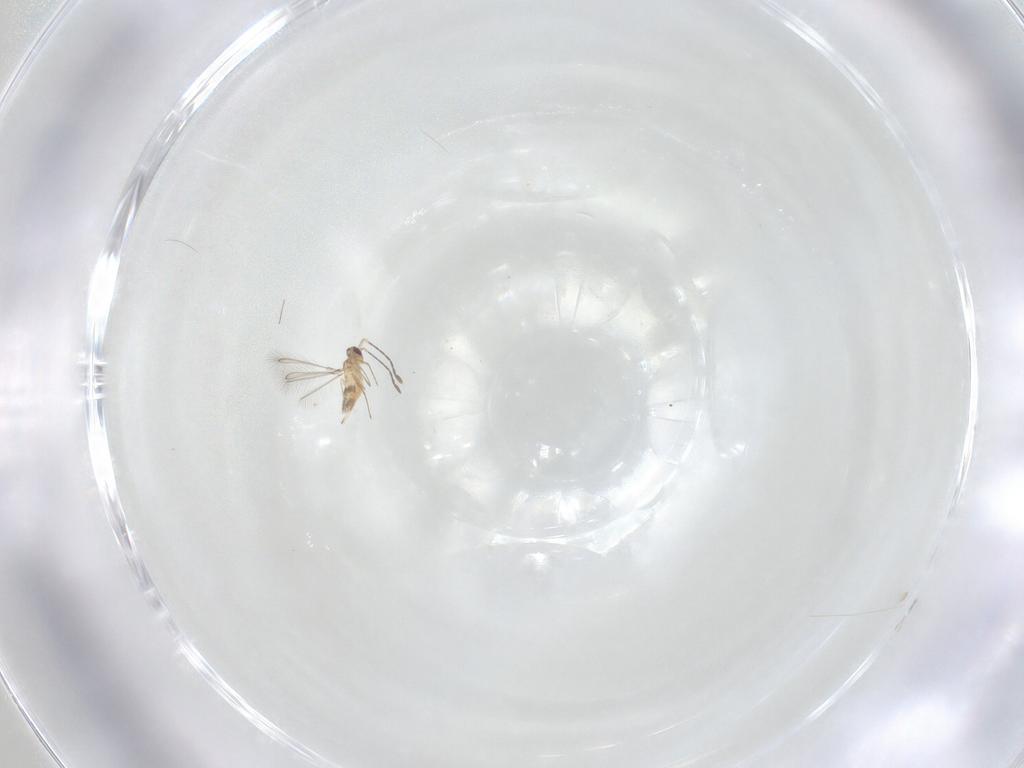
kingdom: Animalia
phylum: Arthropoda
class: Insecta
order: Hymenoptera
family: Mymaridae
